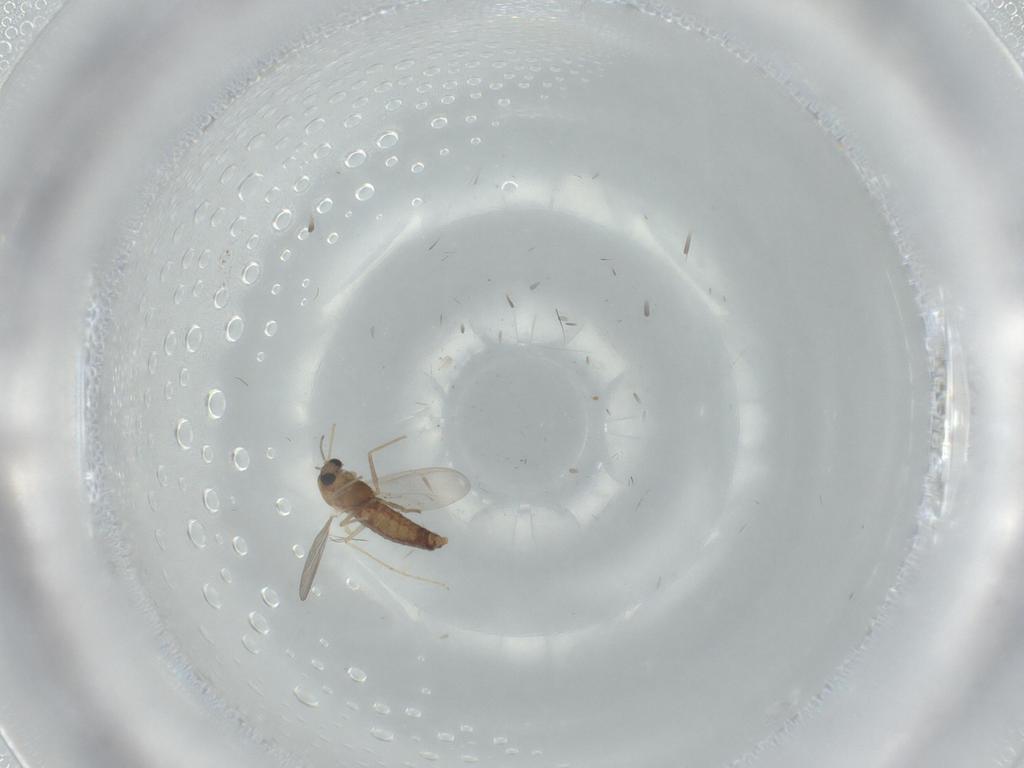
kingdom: Animalia
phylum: Arthropoda
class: Insecta
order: Diptera
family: Chironomidae
